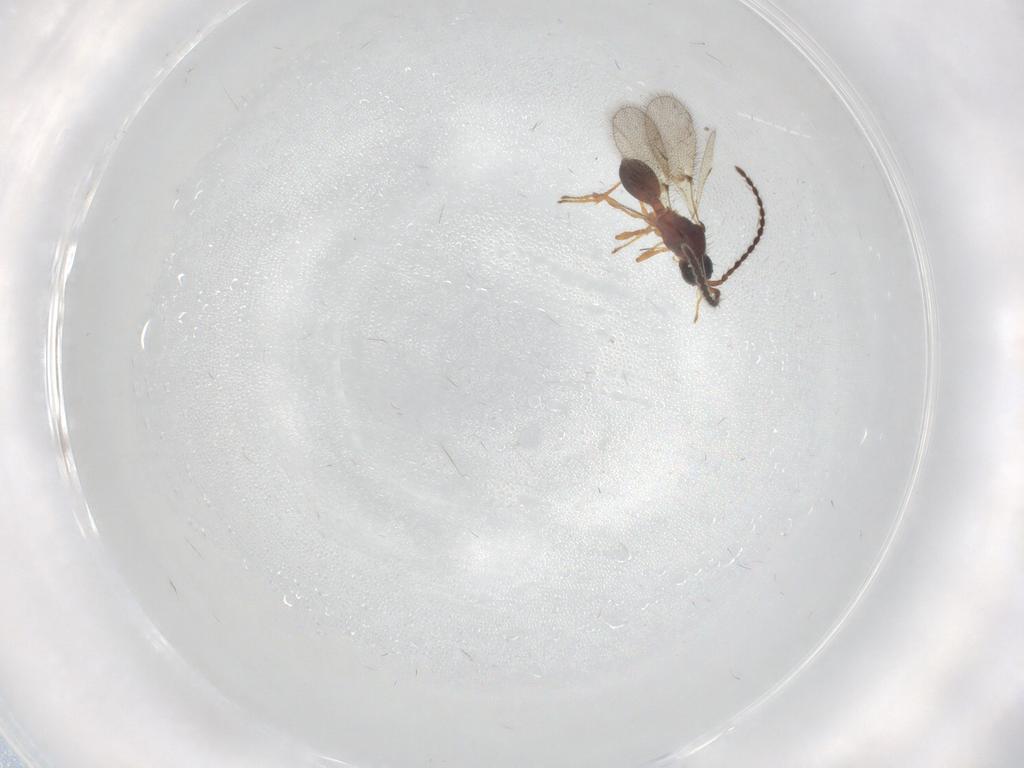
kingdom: Animalia
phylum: Arthropoda
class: Insecta
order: Hymenoptera
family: Diapriidae
